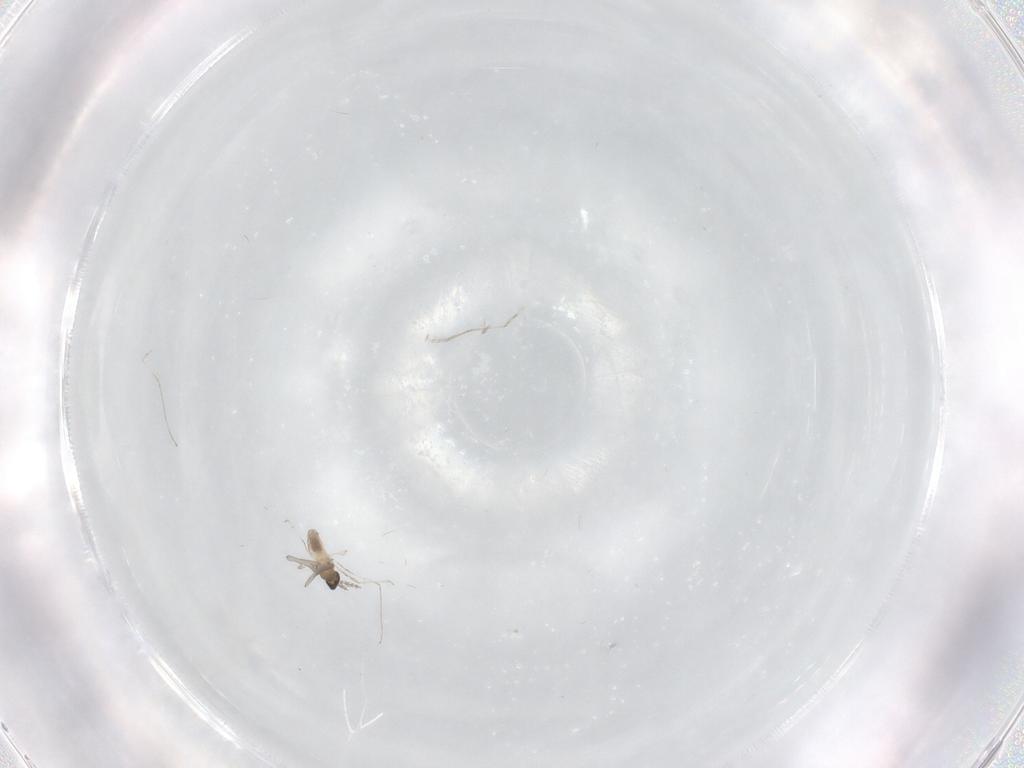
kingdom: Animalia
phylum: Arthropoda
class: Insecta
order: Diptera
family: Cecidomyiidae
